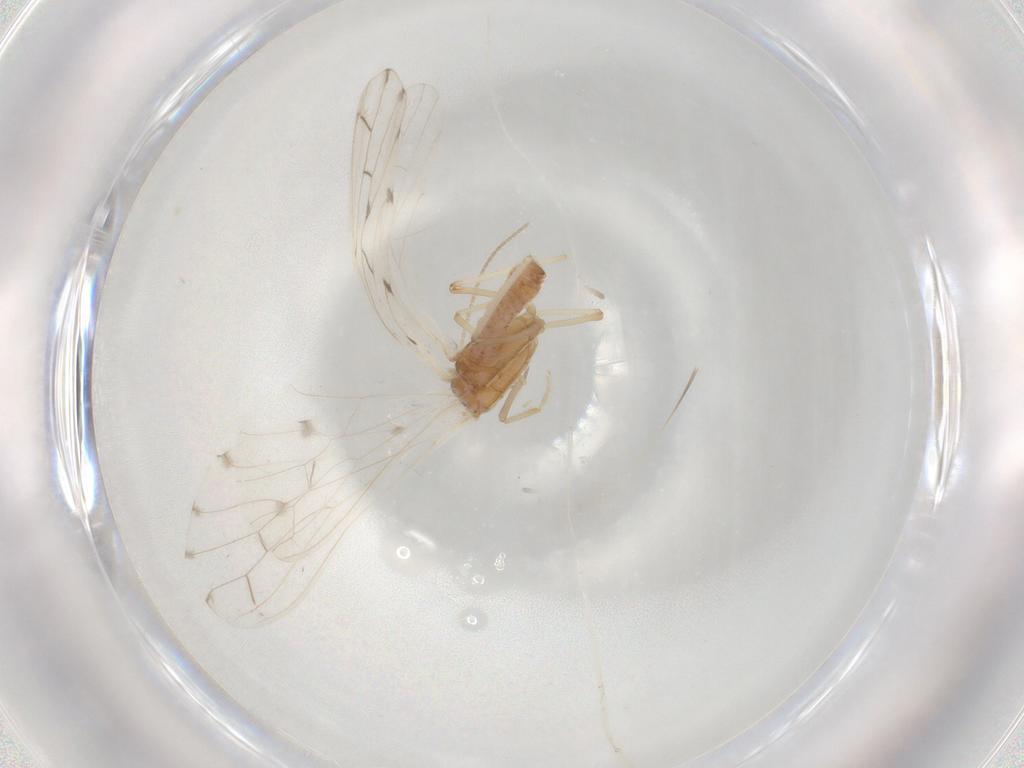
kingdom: Animalia
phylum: Arthropoda
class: Insecta
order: Neuroptera
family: Coniopterygidae
